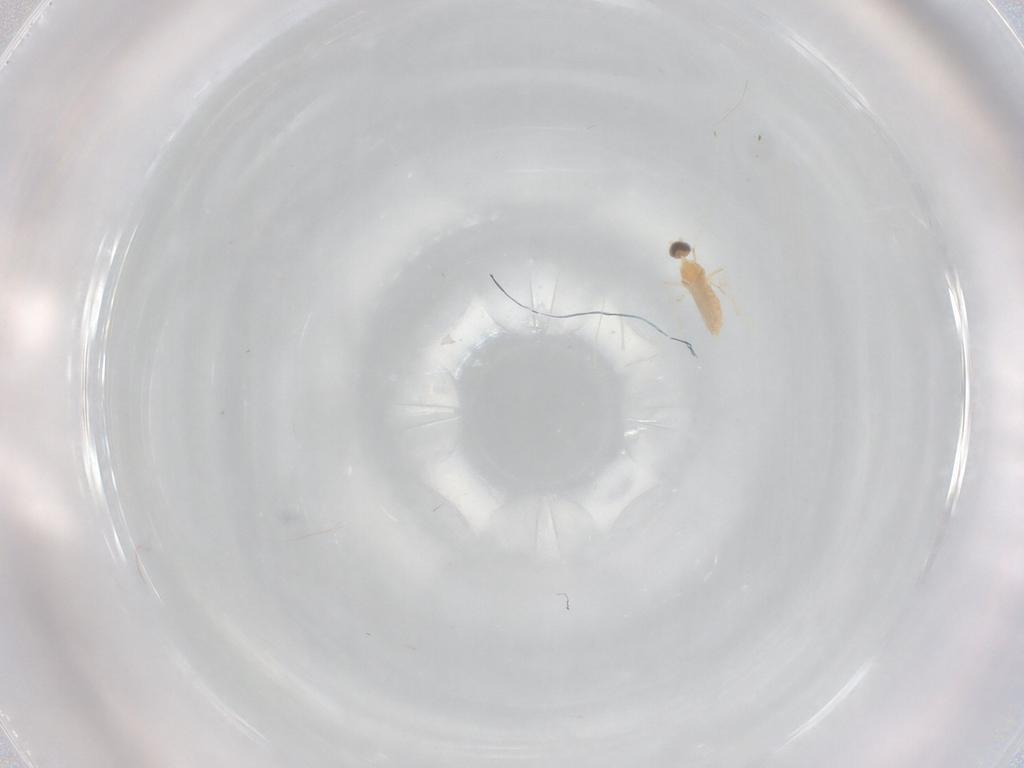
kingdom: Animalia
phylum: Arthropoda
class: Insecta
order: Diptera
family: Cecidomyiidae
